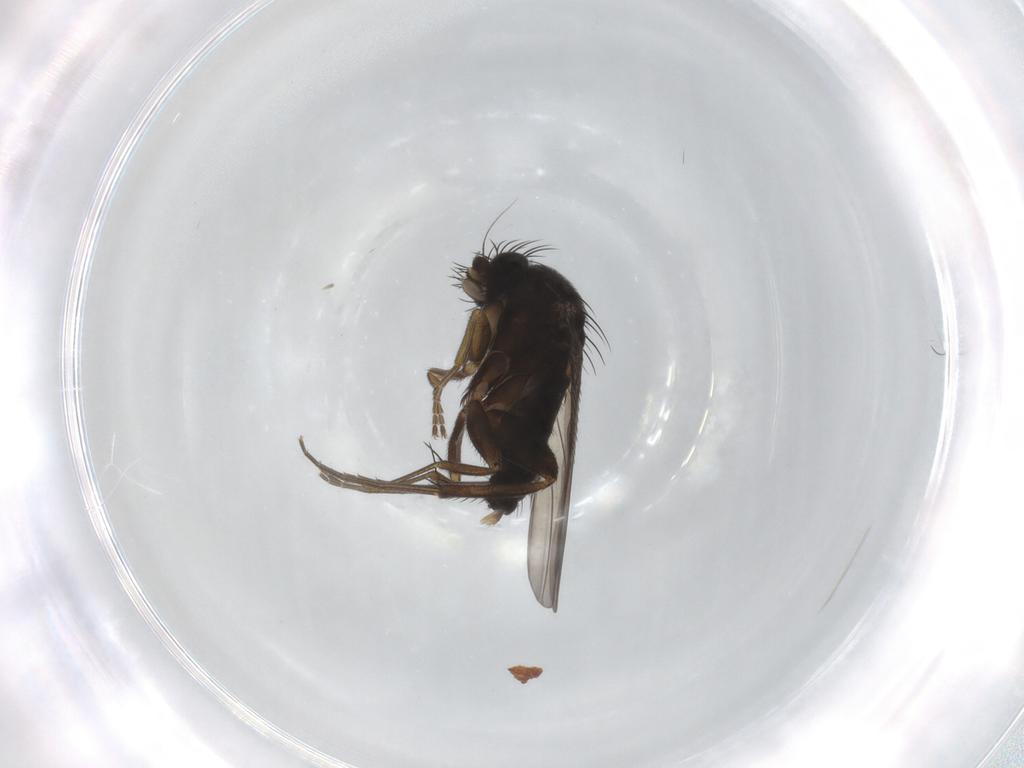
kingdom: Animalia
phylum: Arthropoda
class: Insecta
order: Diptera
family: Phoridae
